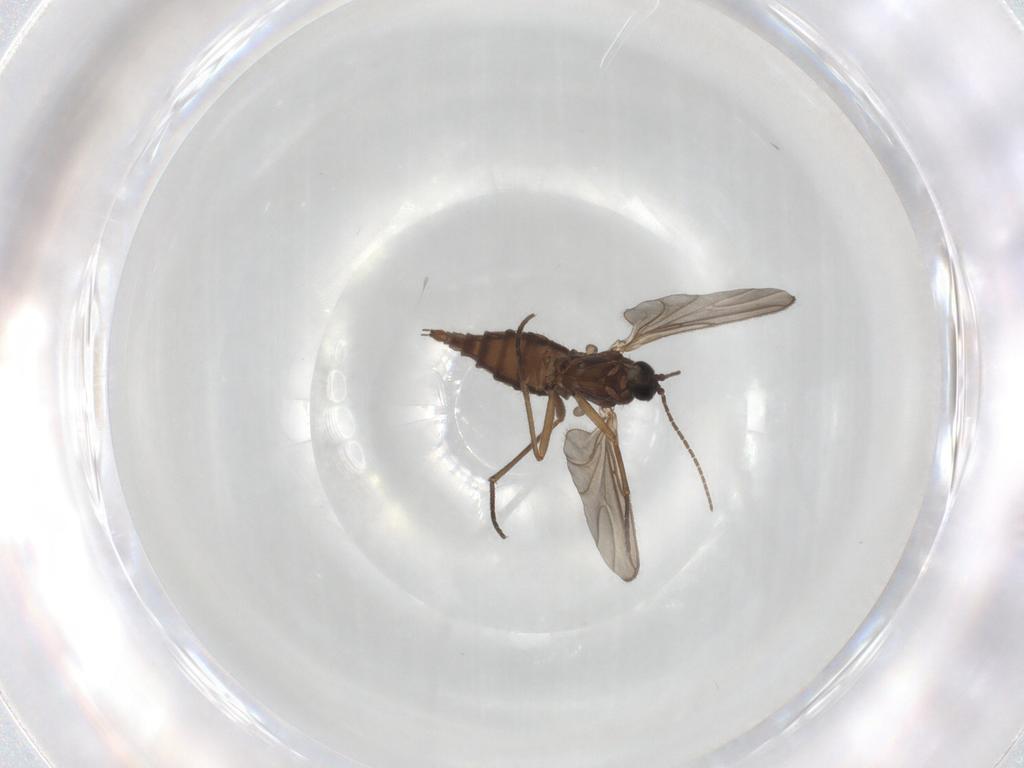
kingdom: Animalia
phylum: Arthropoda
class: Insecta
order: Diptera
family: Sciaridae
